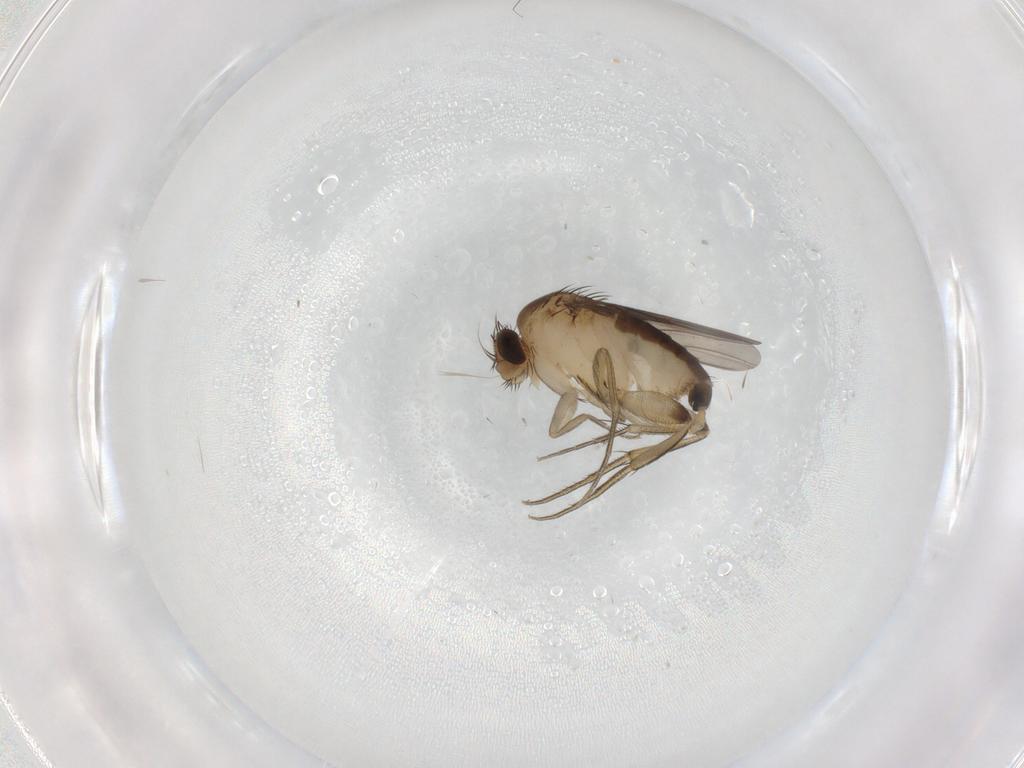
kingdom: Animalia
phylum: Arthropoda
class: Insecta
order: Diptera
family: Phoridae
